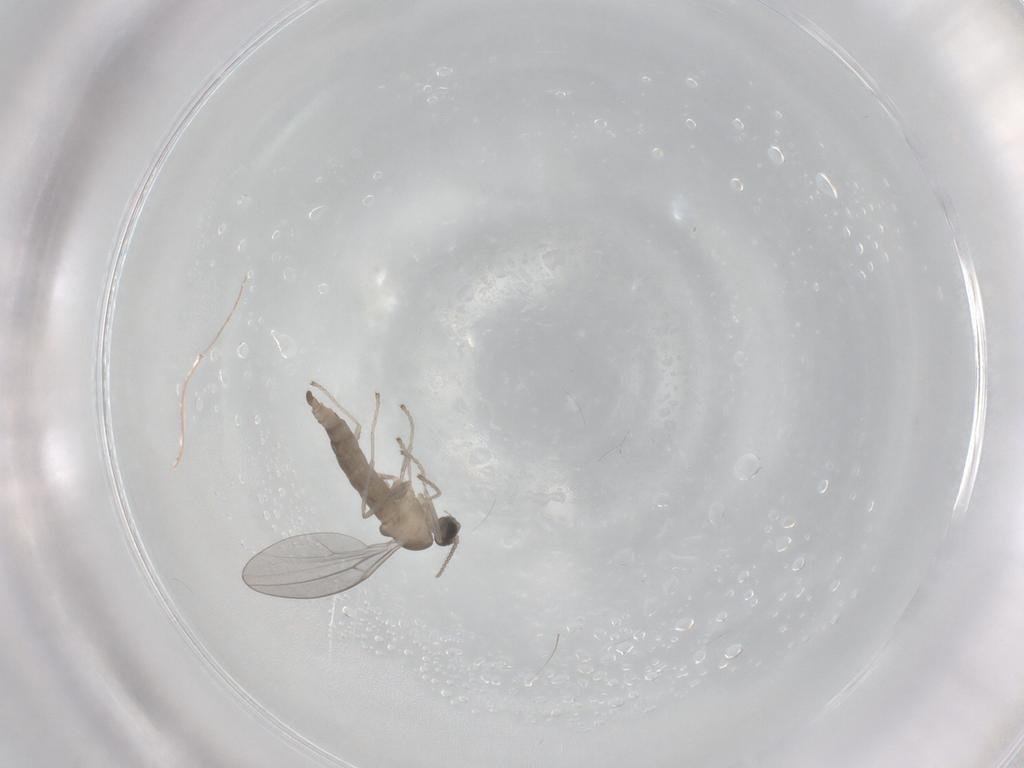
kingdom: Animalia
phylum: Arthropoda
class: Insecta
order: Diptera
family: Cecidomyiidae
